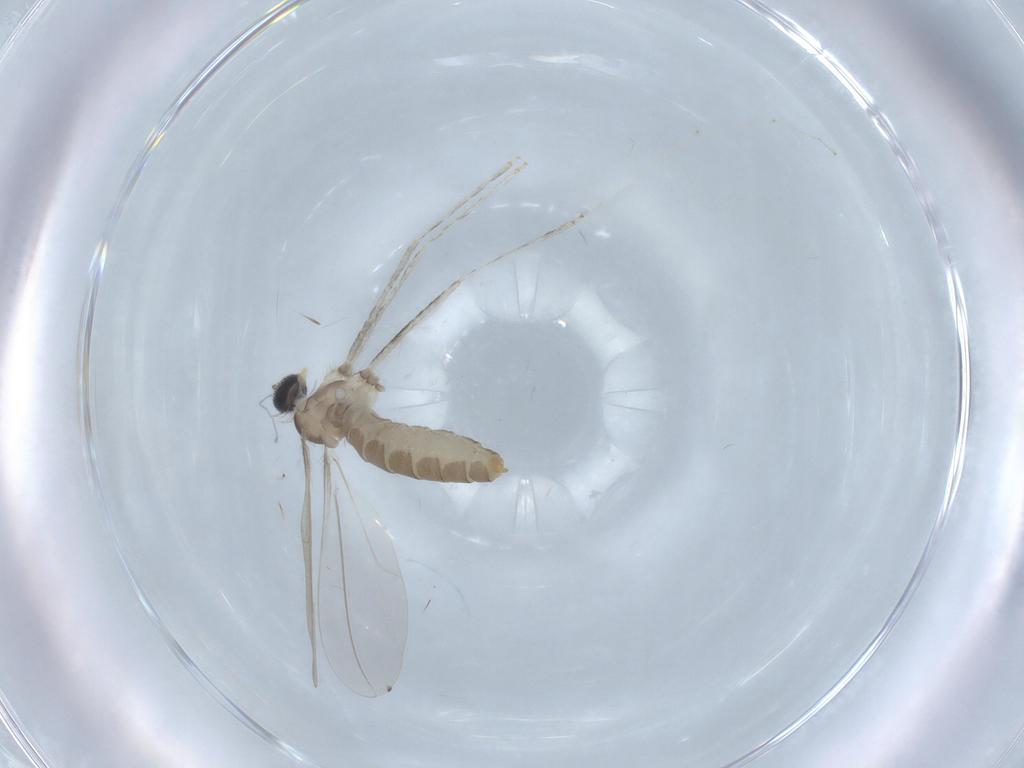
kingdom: Animalia
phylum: Arthropoda
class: Insecta
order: Diptera
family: Cecidomyiidae
